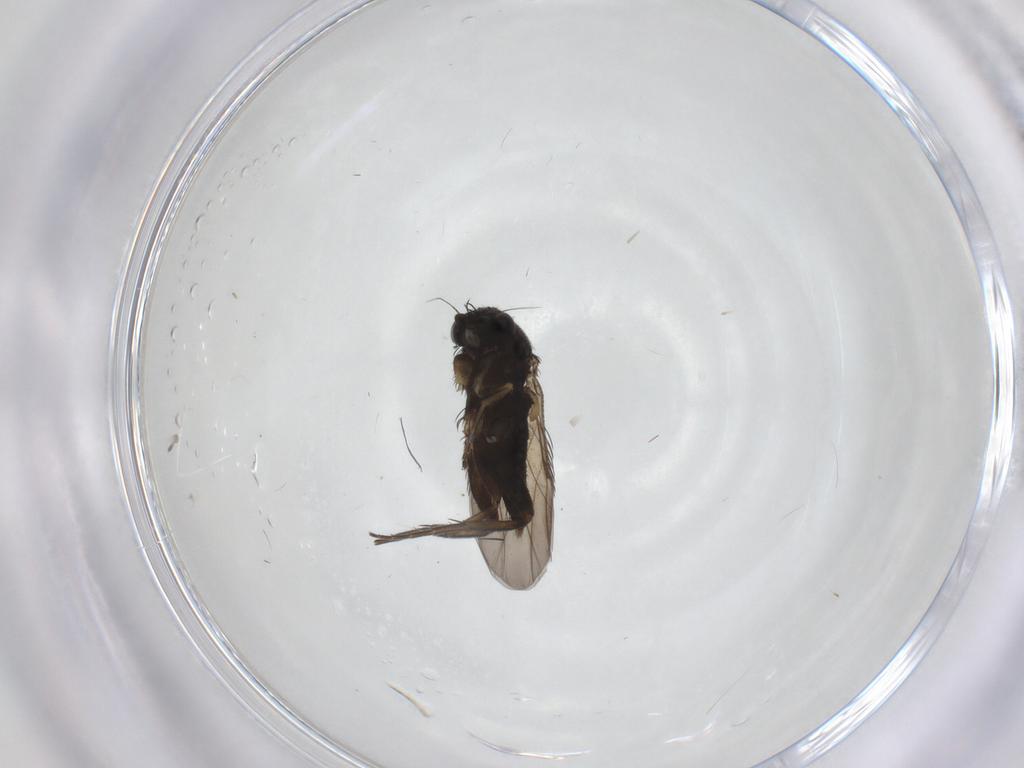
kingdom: Animalia
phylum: Arthropoda
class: Insecta
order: Diptera
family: Phoridae
